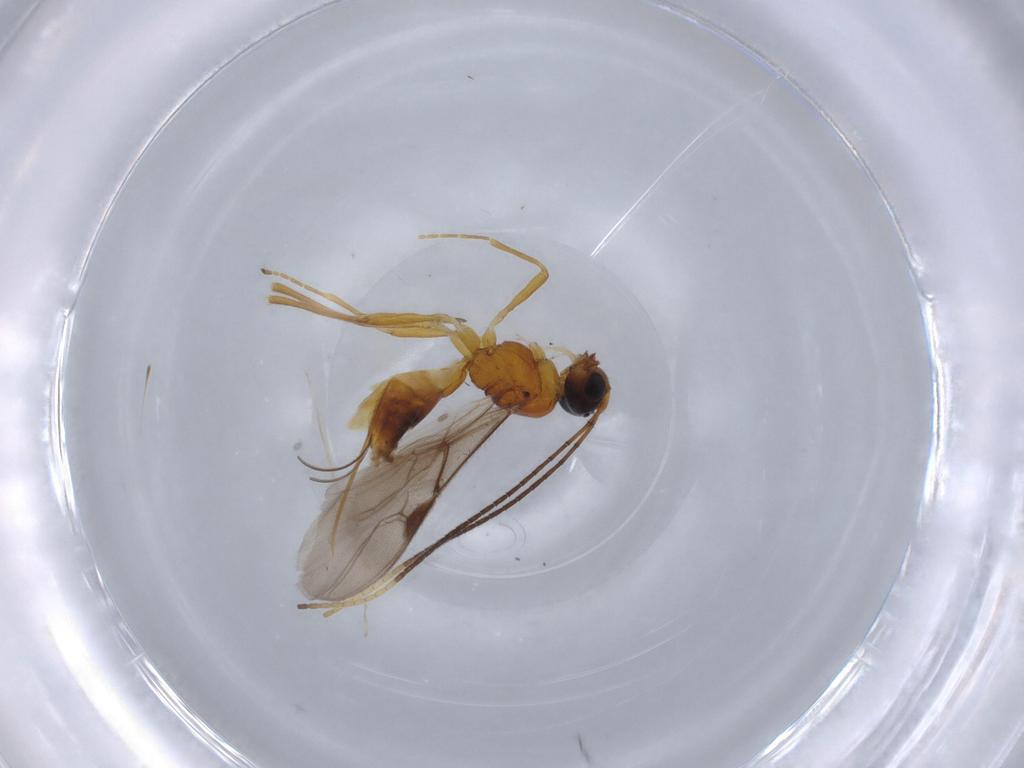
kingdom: Animalia
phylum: Arthropoda
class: Insecta
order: Hymenoptera
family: Braconidae
